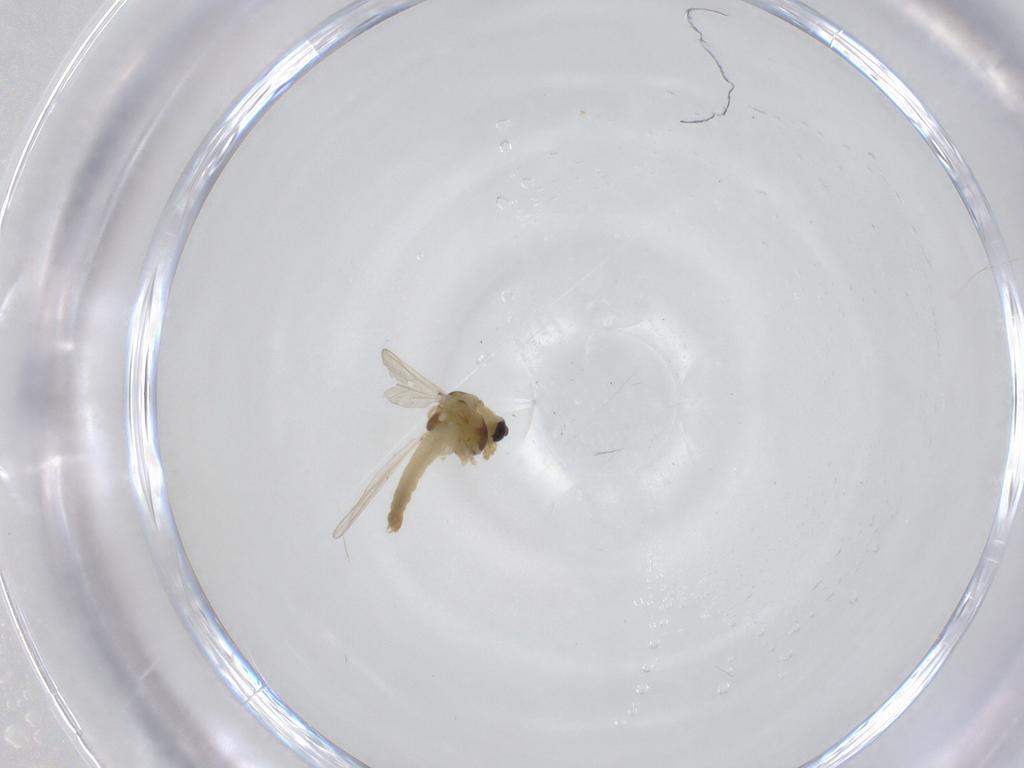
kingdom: Animalia
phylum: Arthropoda
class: Insecta
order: Diptera
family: Chironomidae
